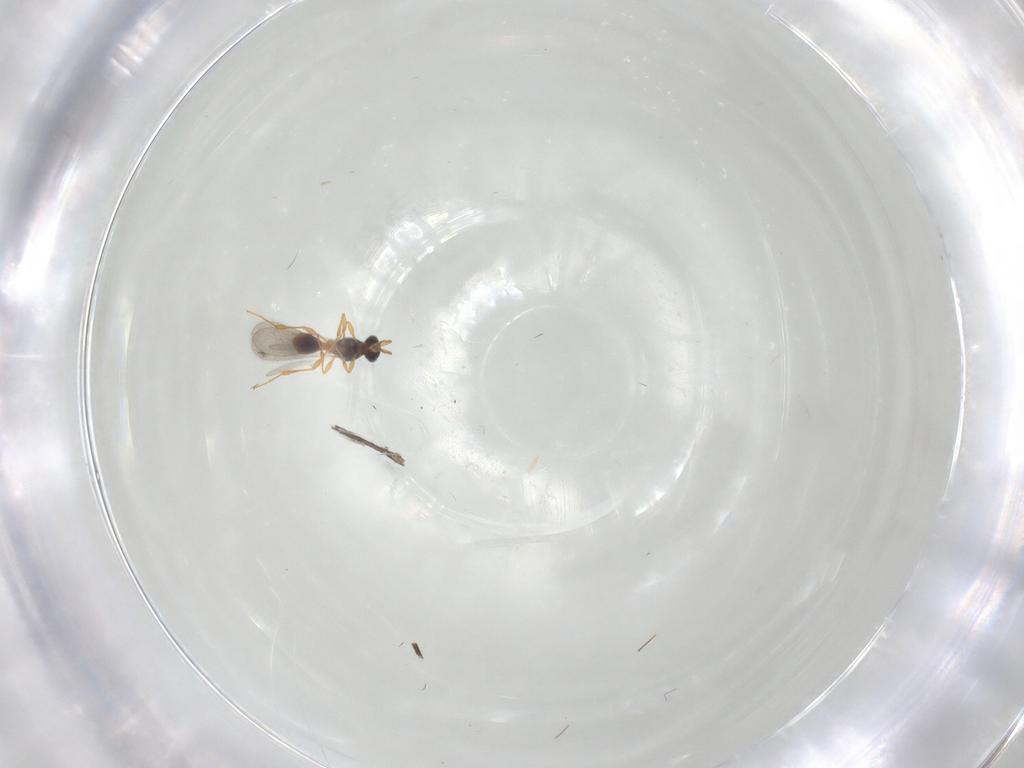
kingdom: Animalia
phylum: Arthropoda
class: Insecta
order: Hymenoptera
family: Platygastridae
